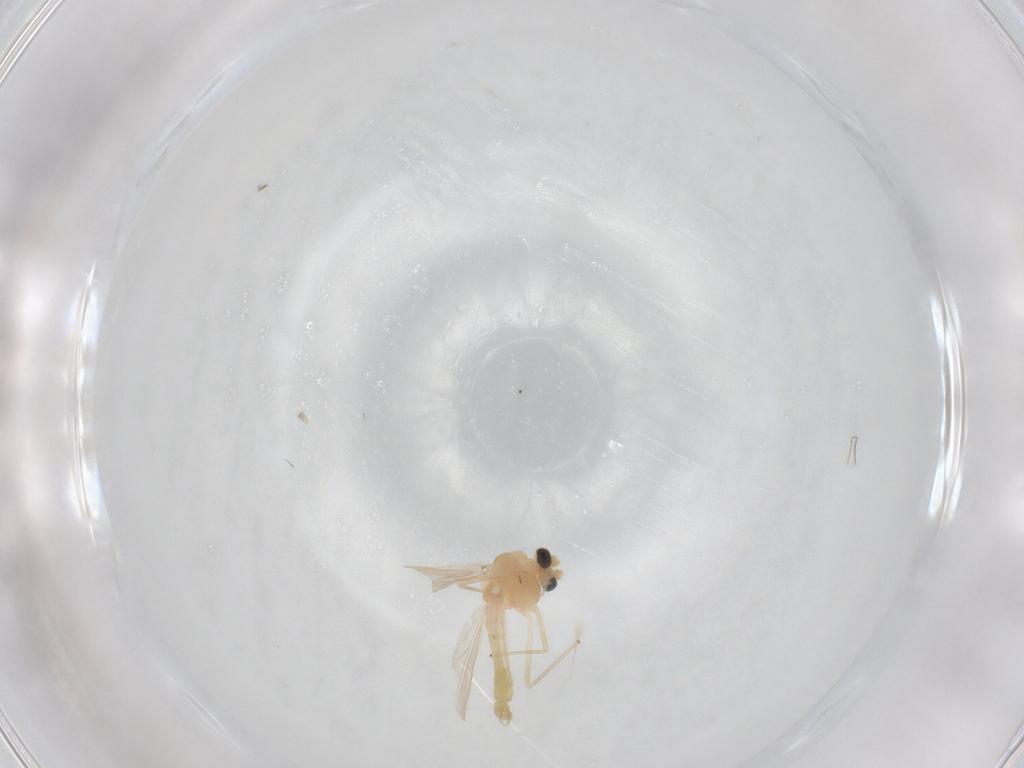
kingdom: Animalia
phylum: Arthropoda
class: Insecta
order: Diptera
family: Chironomidae
